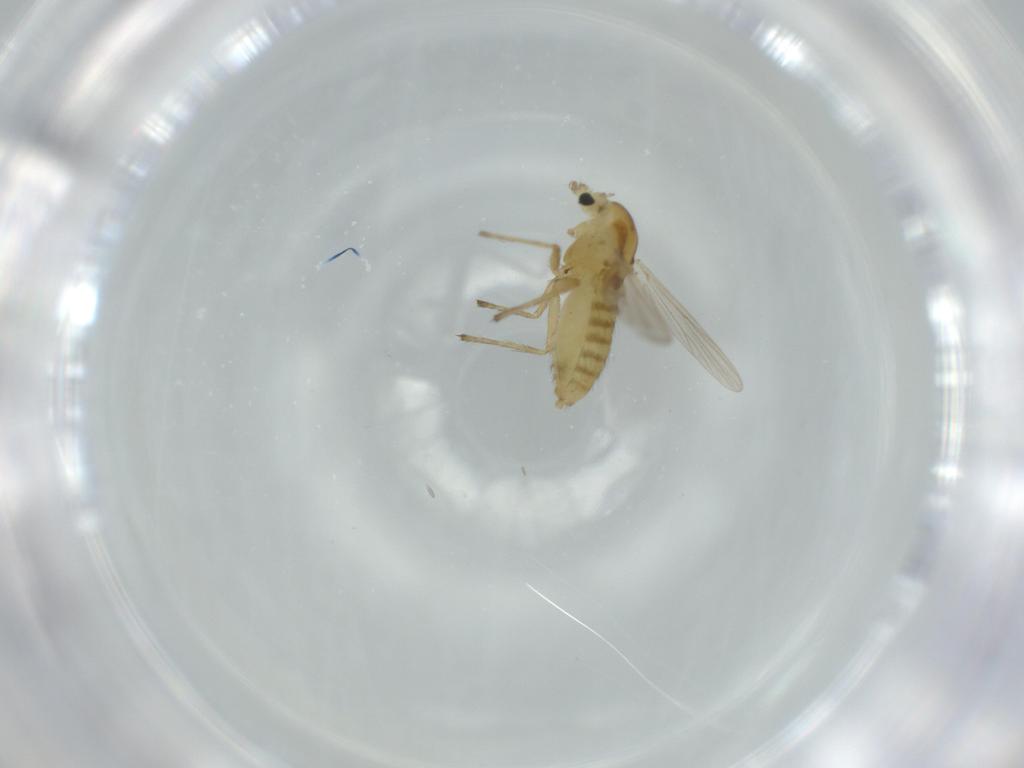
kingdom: Animalia
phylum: Arthropoda
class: Insecta
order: Diptera
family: Chironomidae
